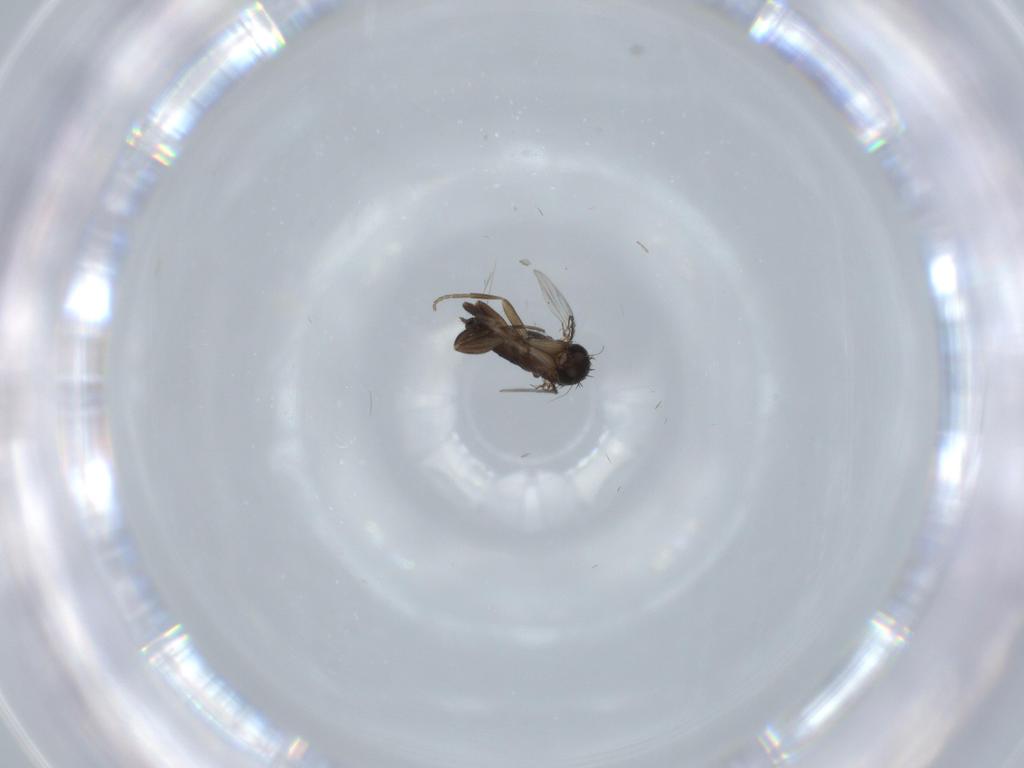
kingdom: Animalia
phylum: Arthropoda
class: Insecta
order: Diptera
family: Phoridae
